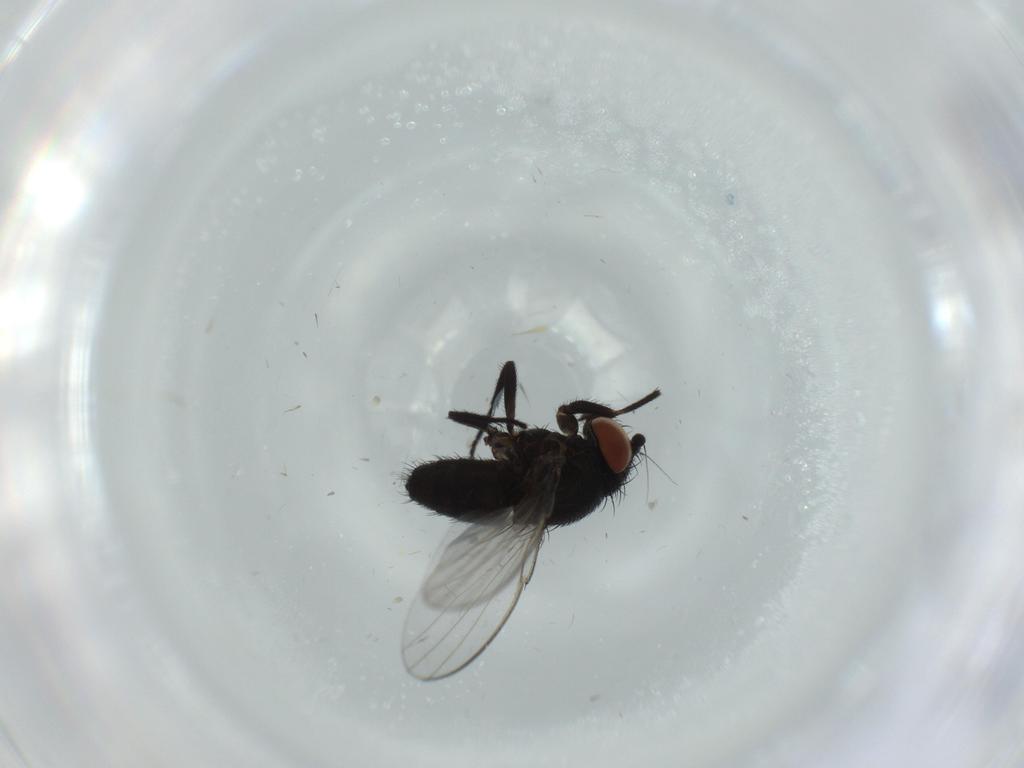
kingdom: Animalia
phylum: Arthropoda
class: Insecta
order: Diptera
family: Milichiidae
